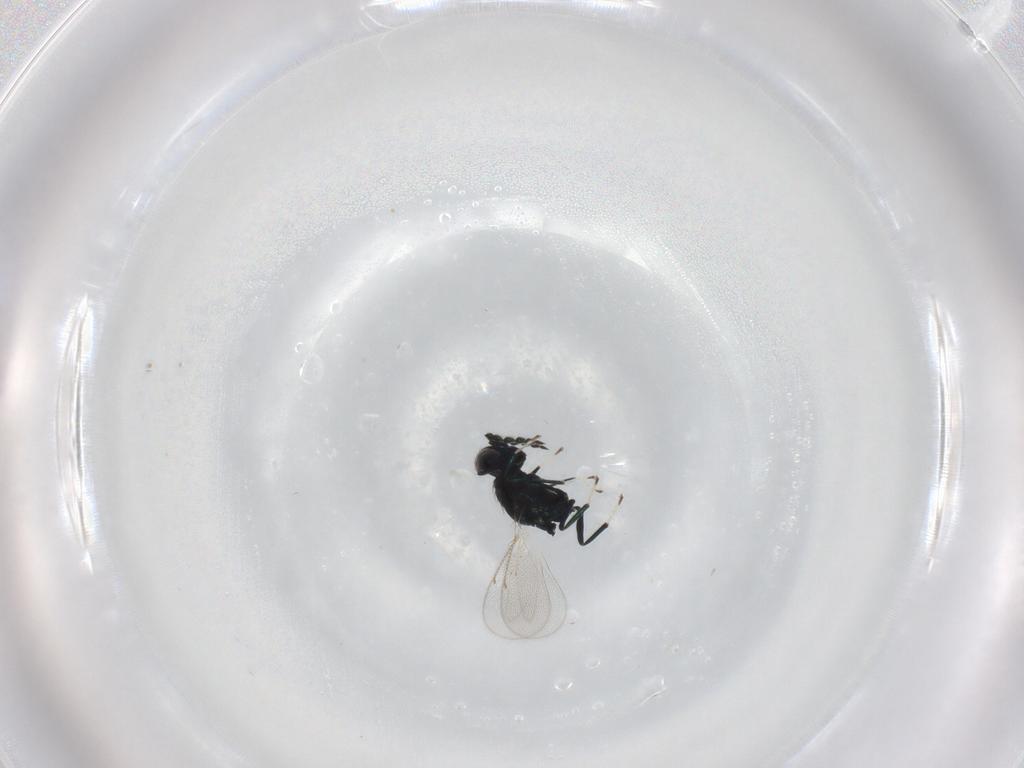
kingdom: Animalia
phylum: Arthropoda
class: Insecta
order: Hymenoptera
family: Eulophidae
